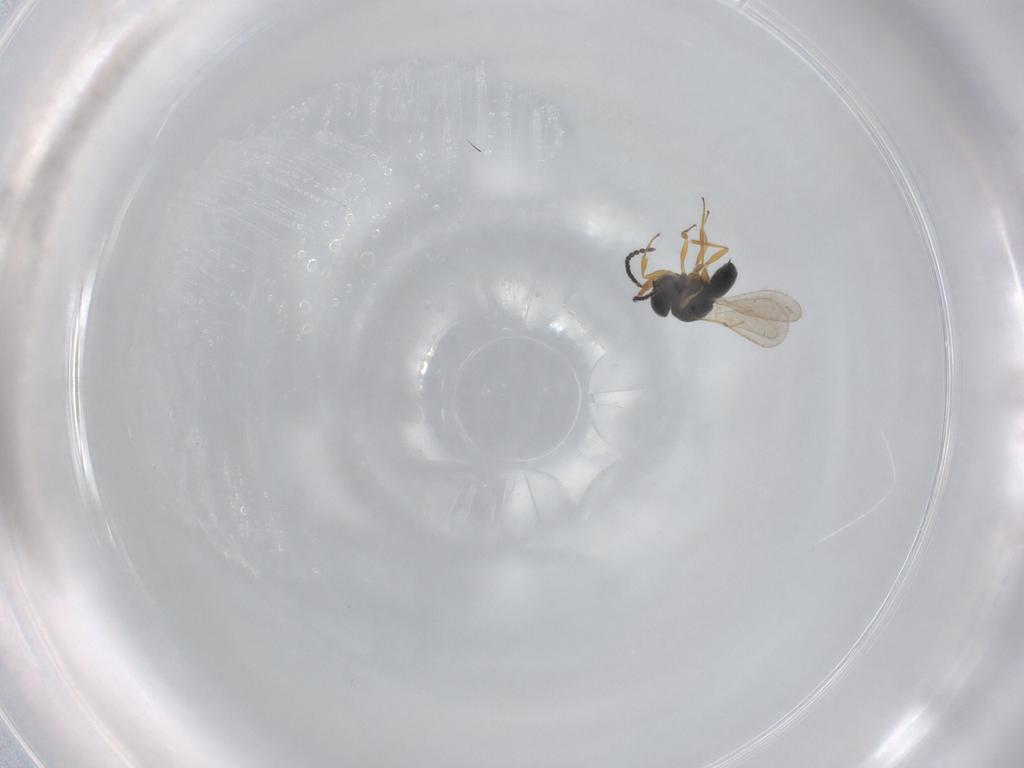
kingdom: Animalia
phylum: Arthropoda
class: Insecta
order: Hymenoptera
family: Scelionidae
